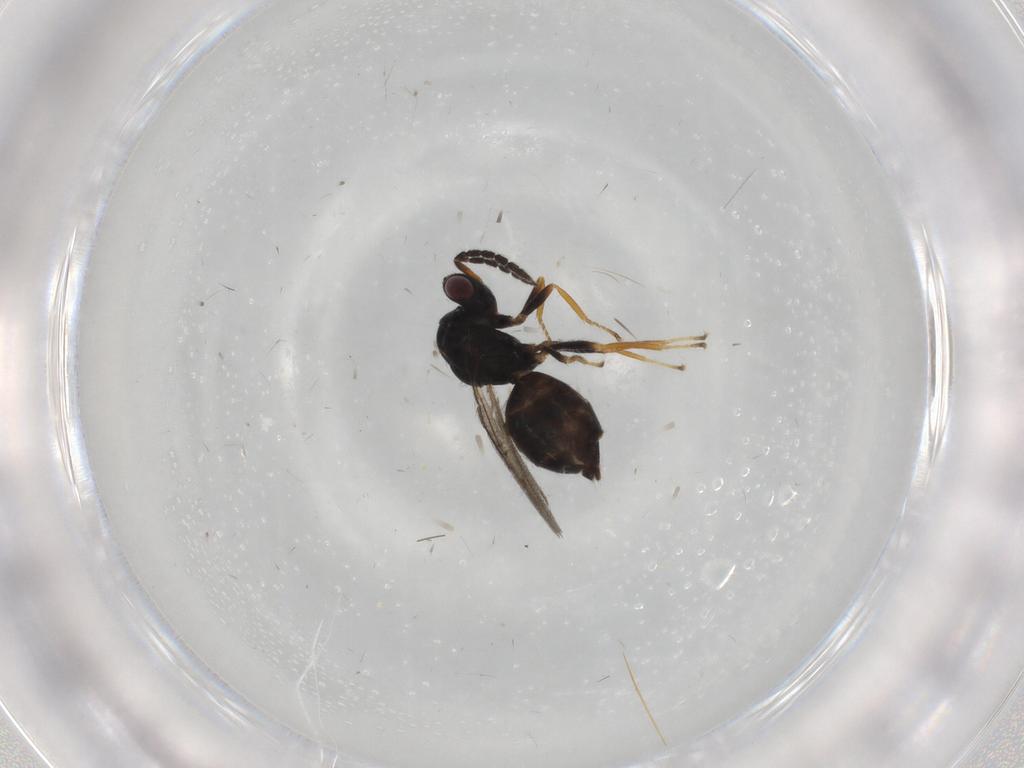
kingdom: Animalia
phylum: Arthropoda
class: Insecta
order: Hymenoptera
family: Eulophidae
